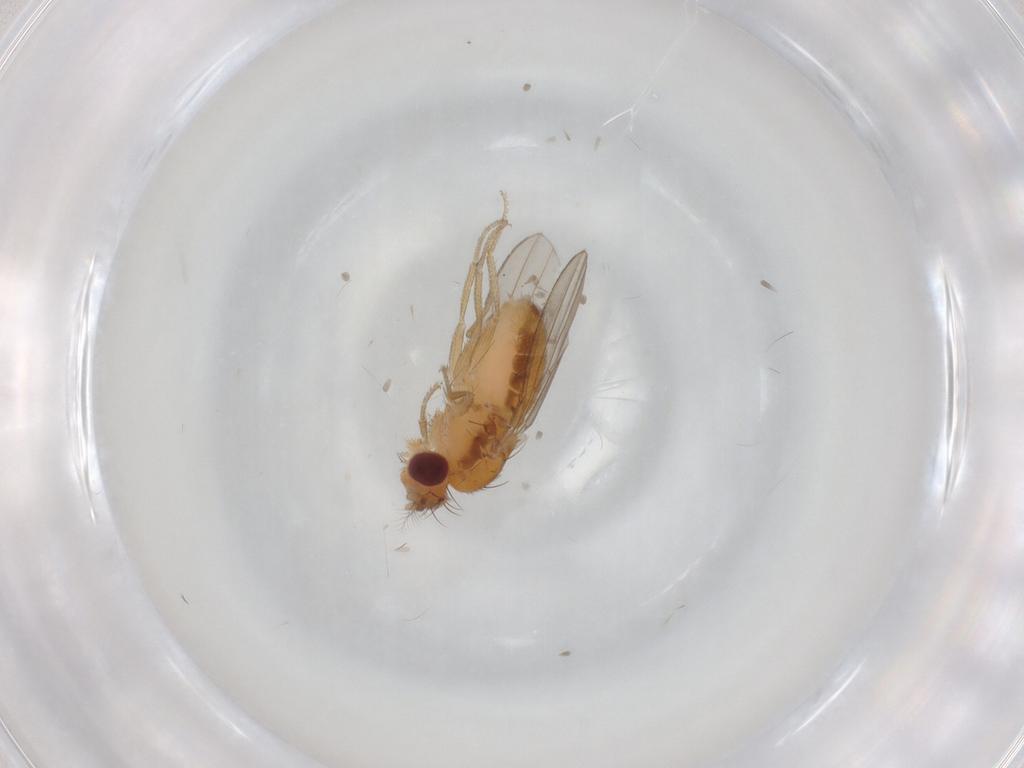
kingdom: Animalia
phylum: Arthropoda
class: Insecta
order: Diptera
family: Drosophilidae
